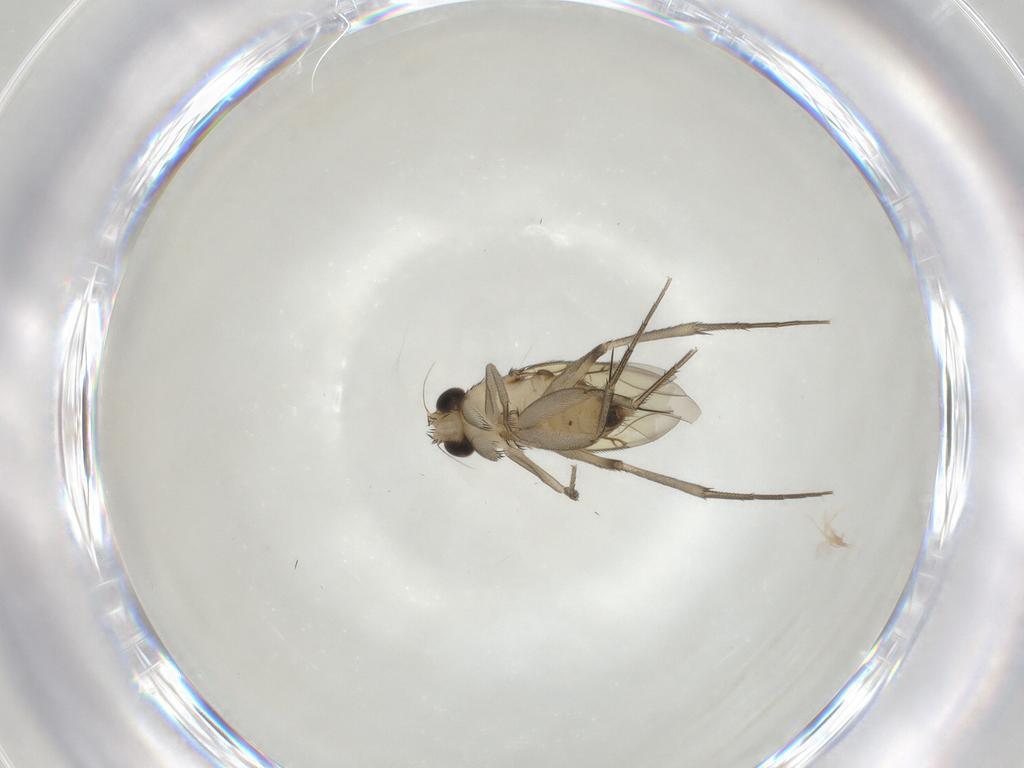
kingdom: Animalia
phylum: Arthropoda
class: Insecta
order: Diptera
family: Phoridae
